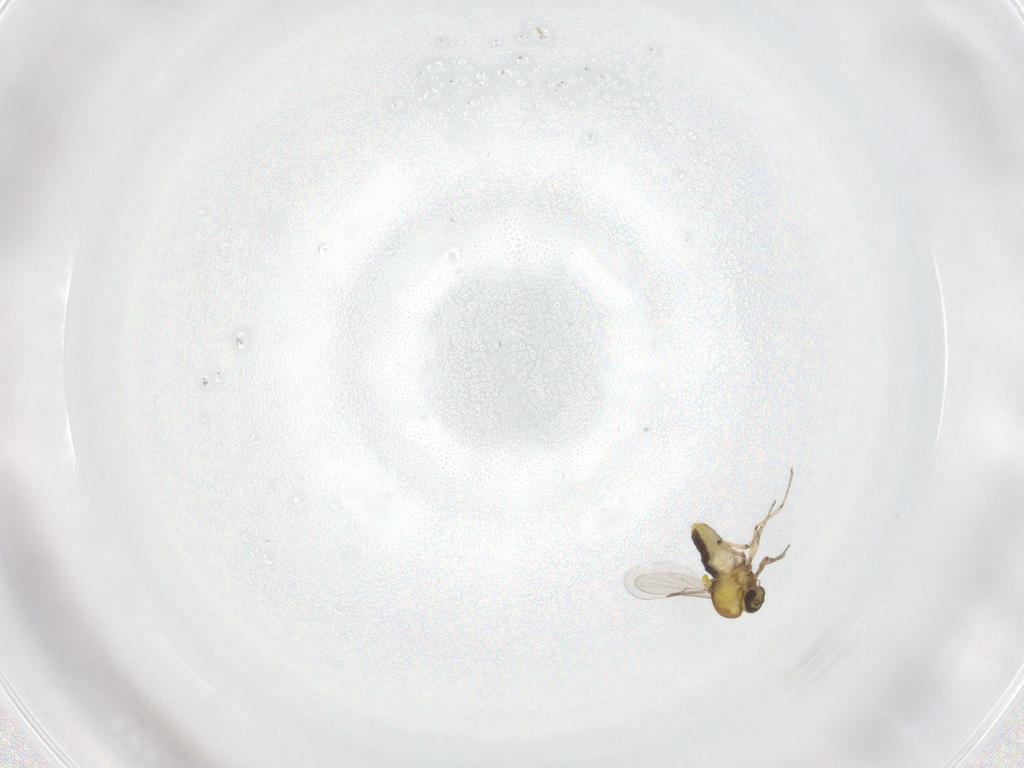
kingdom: Animalia
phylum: Arthropoda
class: Insecta
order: Diptera
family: Ceratopogonidae
